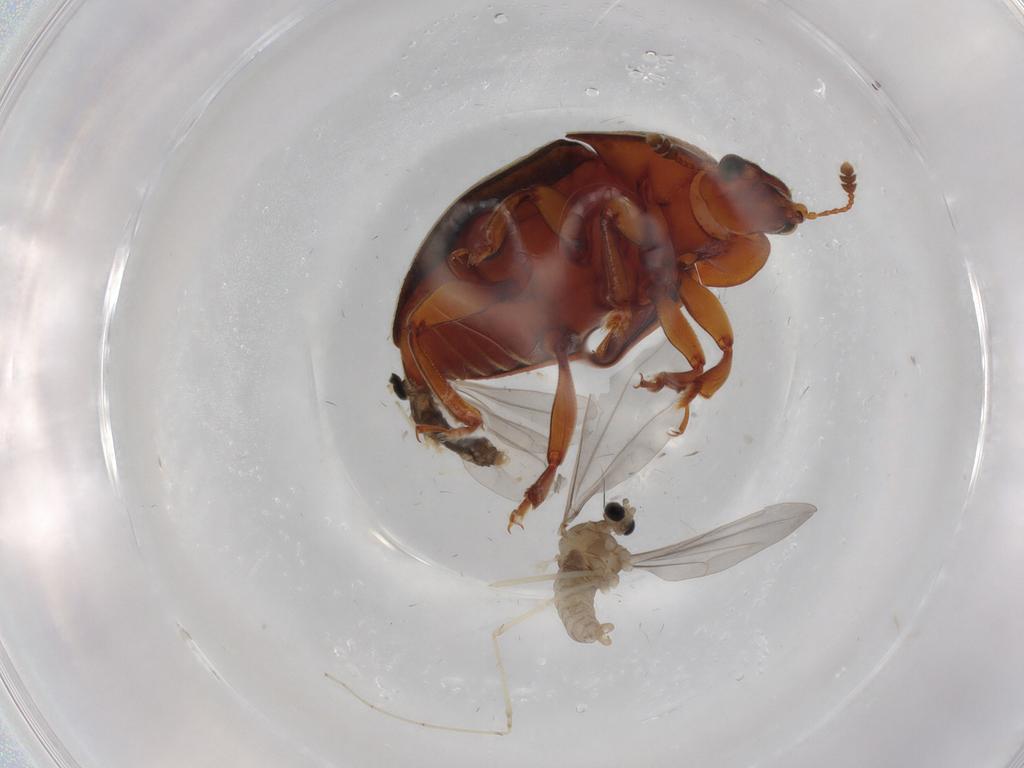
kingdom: Animalia
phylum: Arthropoda
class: Insecta
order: Diptera
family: Cecidomyiidae
